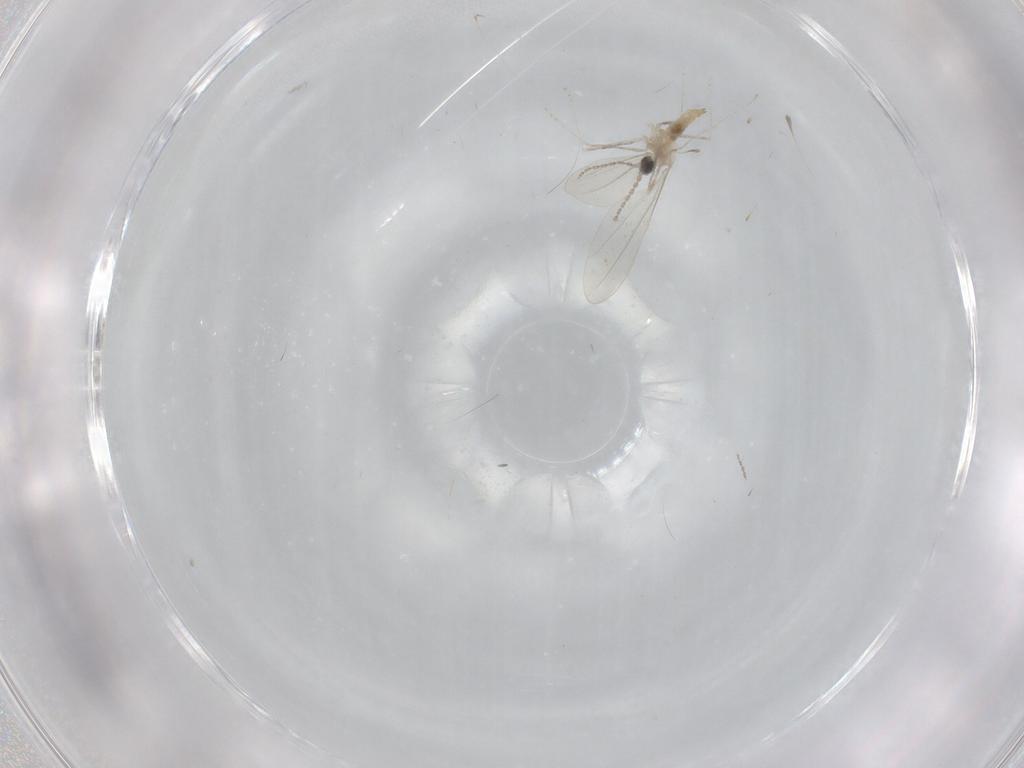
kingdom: Animalia
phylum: Arthropoda
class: Insecta
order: Diptera
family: Cecidomyiidae
